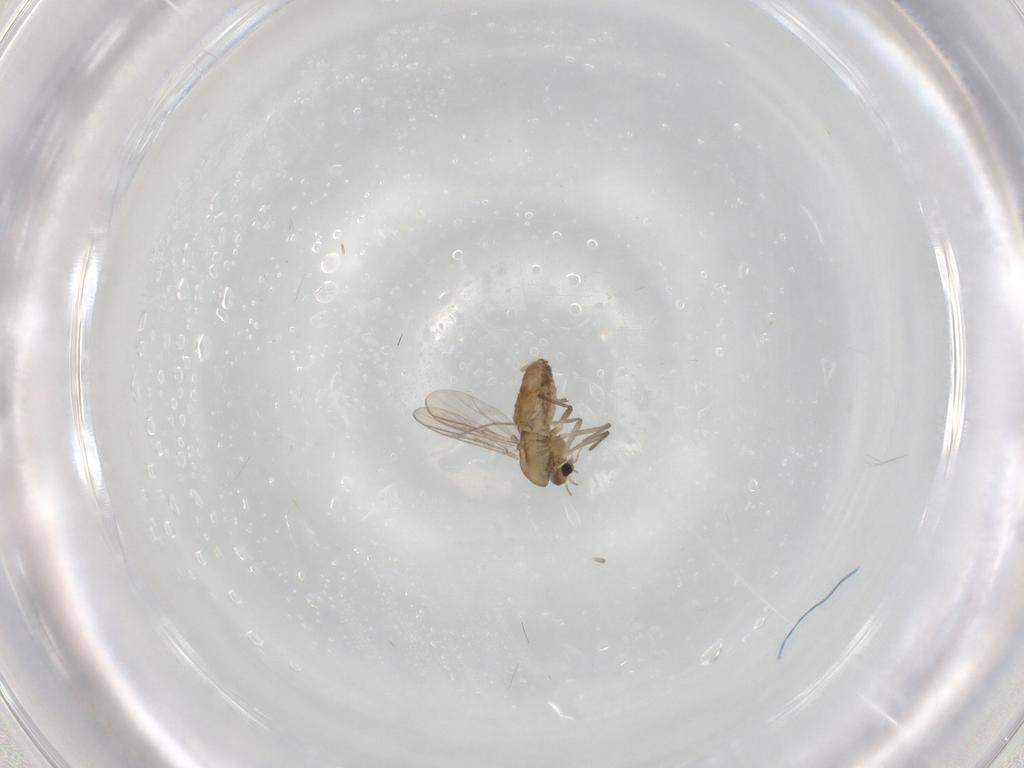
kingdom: Animalia
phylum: Arthropoda
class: Insecta
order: Diptera
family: Chironomidae
